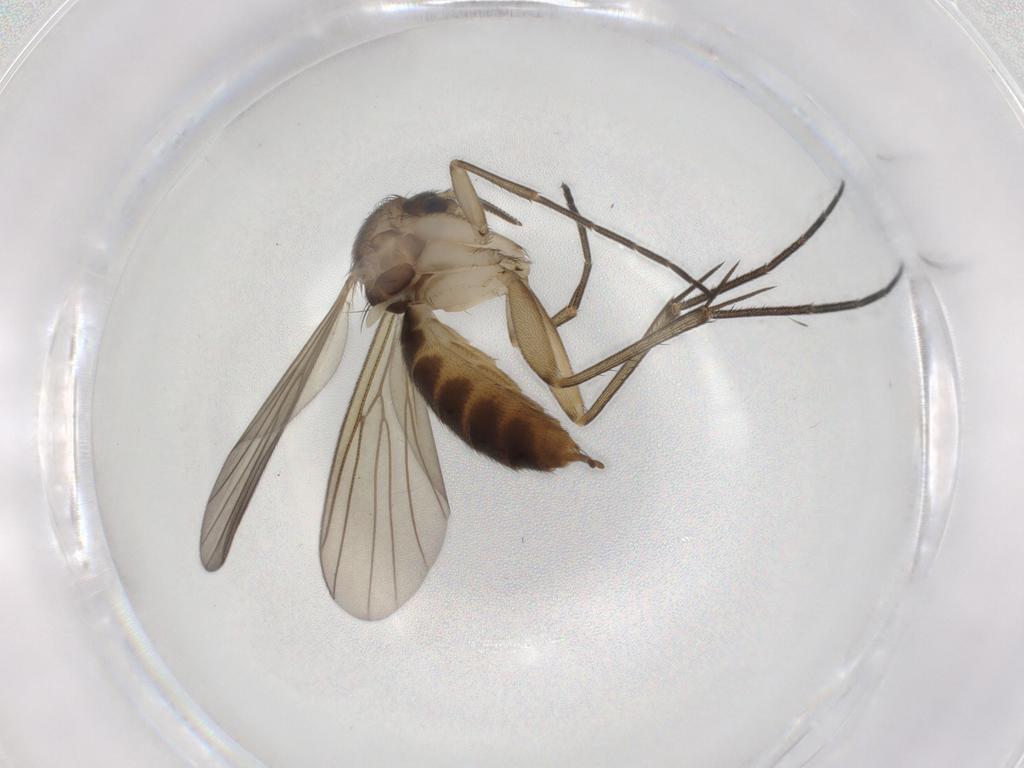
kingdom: Animalia
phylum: Arthropoda
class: Insecta
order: Diptera
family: Mycetophilidae
